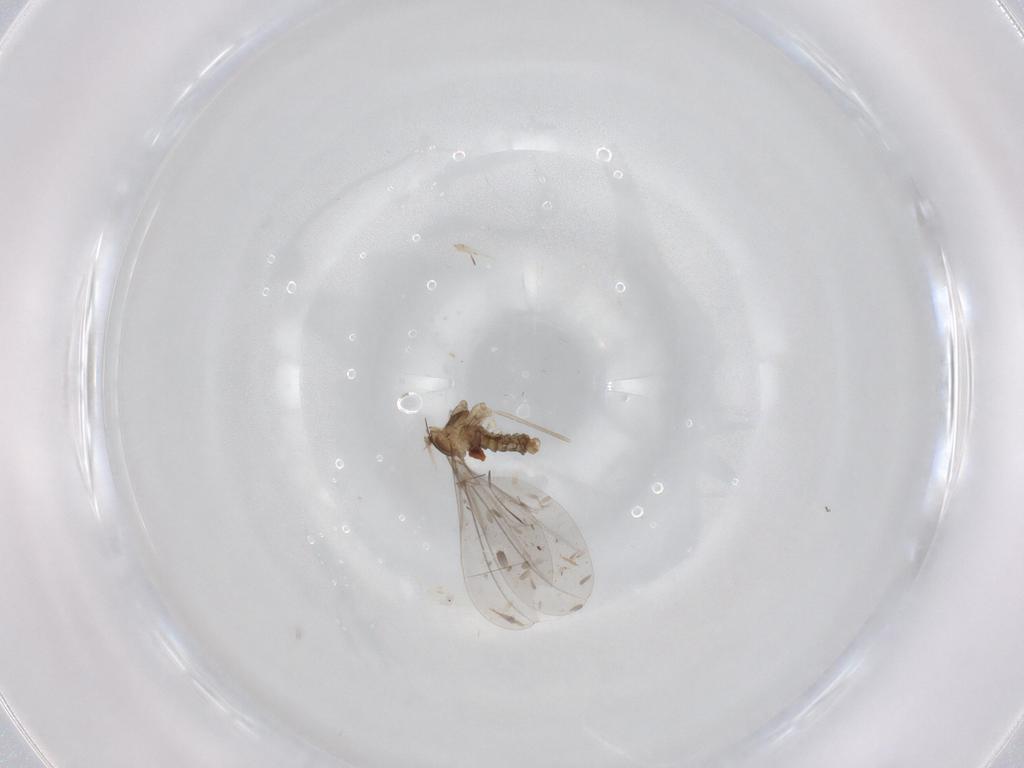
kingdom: Animalia
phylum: Arthropoda
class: Insecta
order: Diptera
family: Cecidomyiidae
